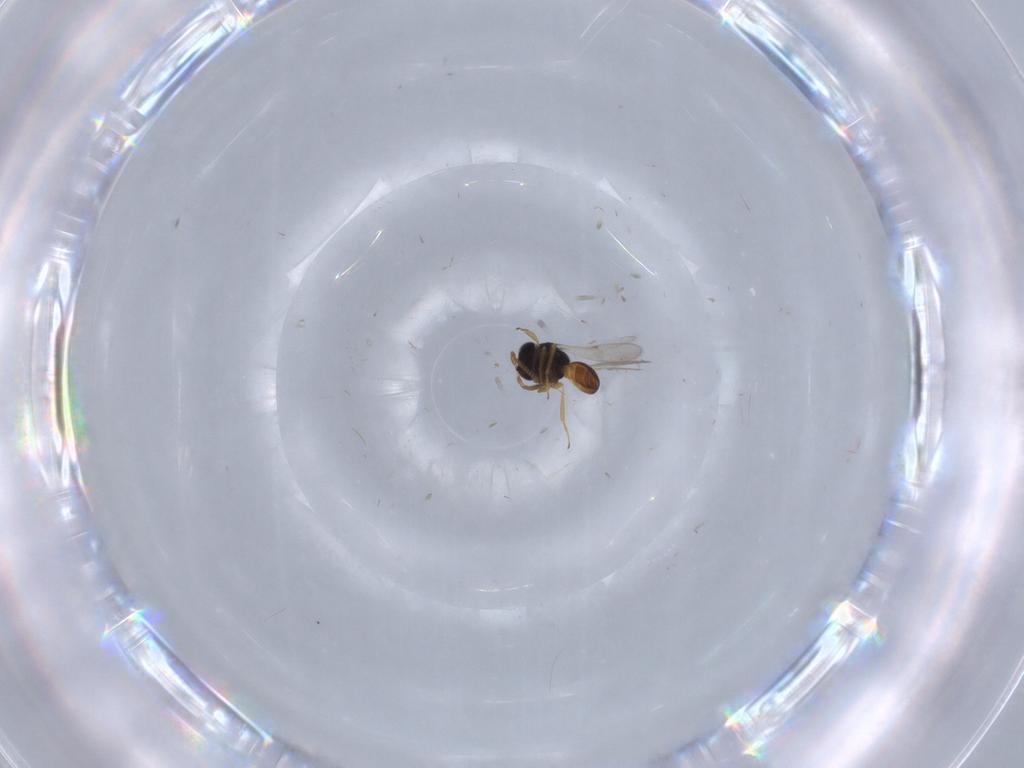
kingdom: Animalia
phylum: Arthropoda
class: Insecta
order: Hymenoptera
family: Scelionidae
